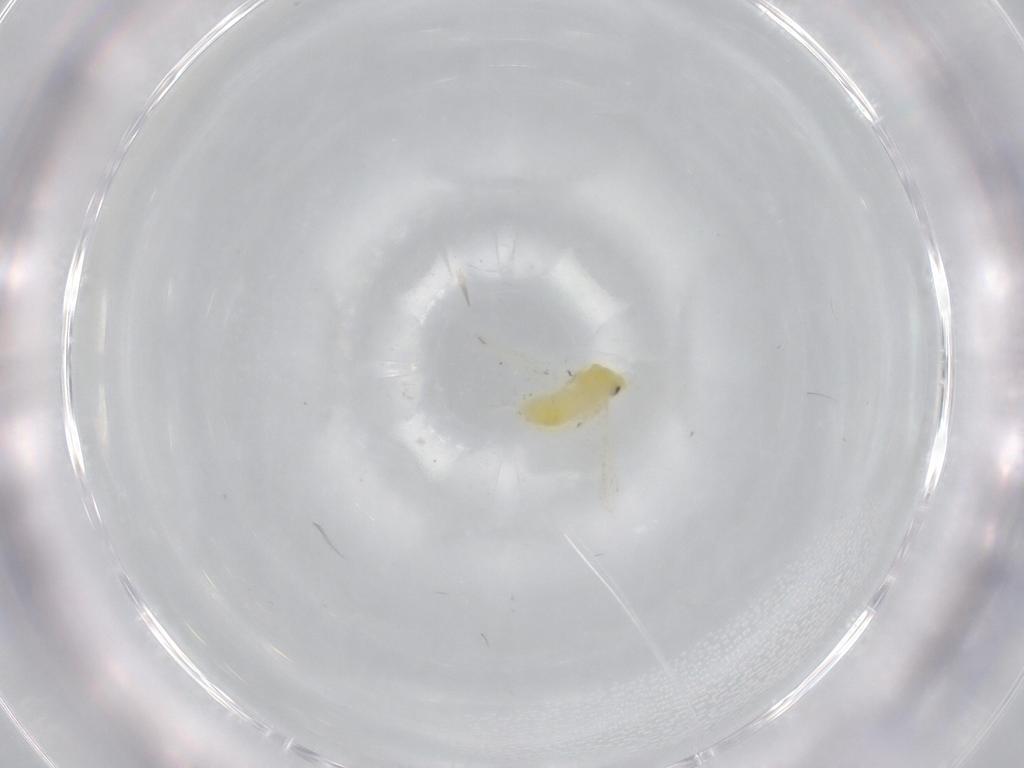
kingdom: Animalia
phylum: Arthropoda
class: Insecta
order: Hemiptera
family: Aleyrodidae
